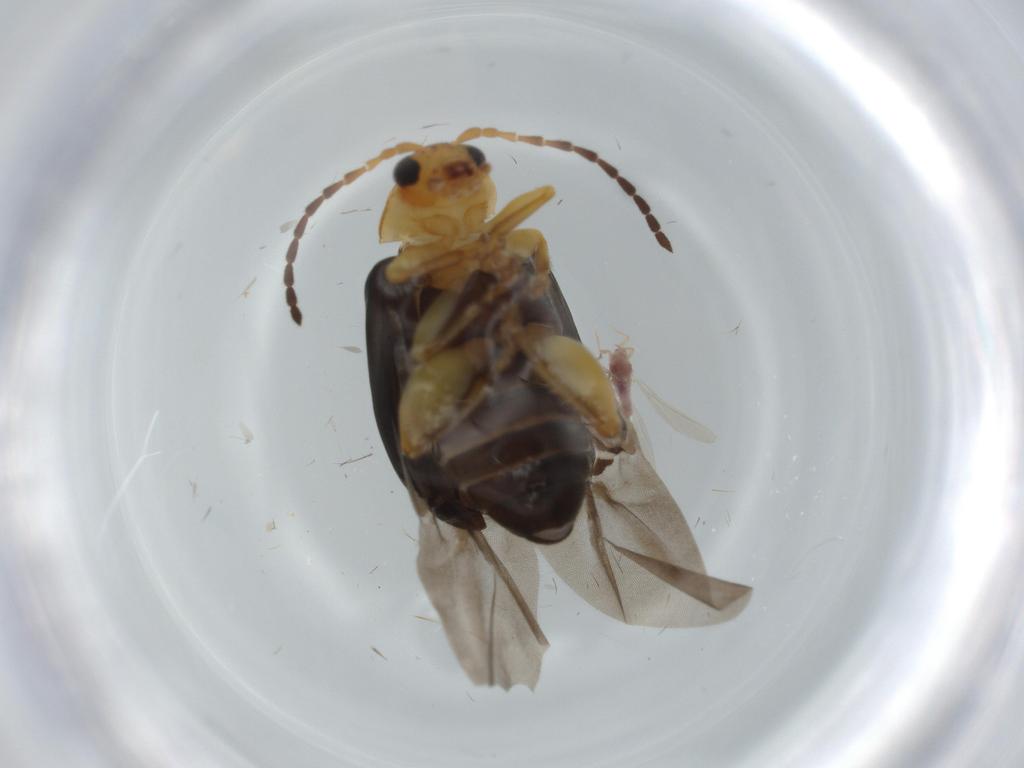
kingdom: Animalia
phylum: Arthropoda
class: Insecta
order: Coleoptera
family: Chrysomelidae
